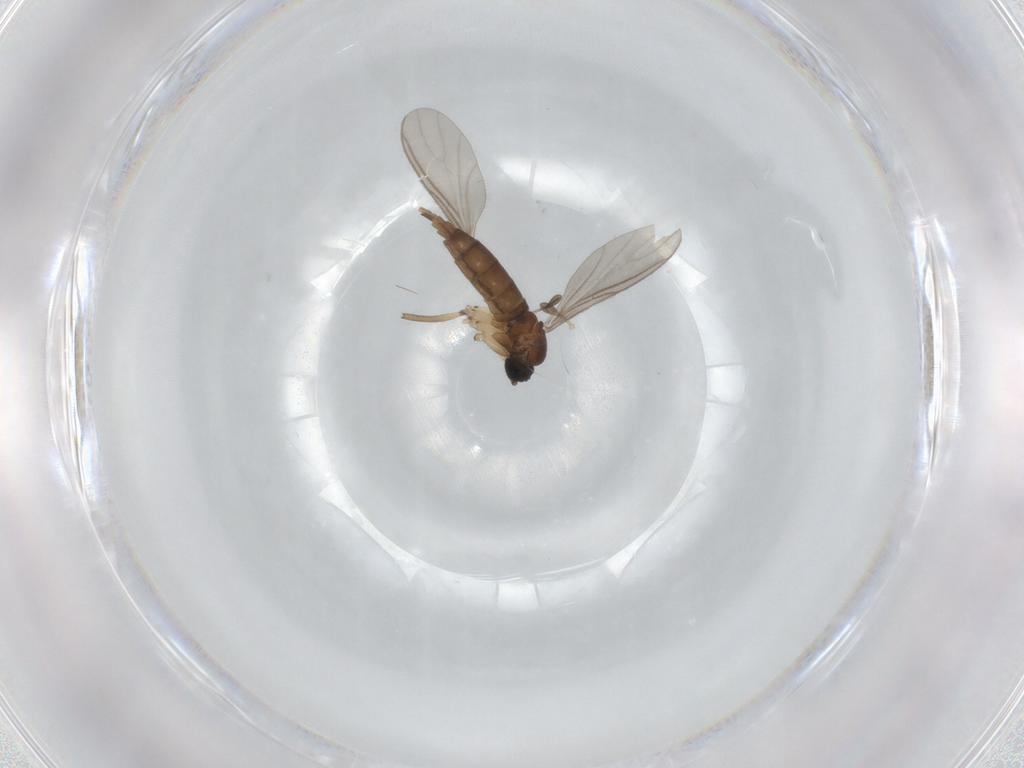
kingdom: Animalia
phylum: Arthropoda
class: Insecta
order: Diptera
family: Sciaridae
